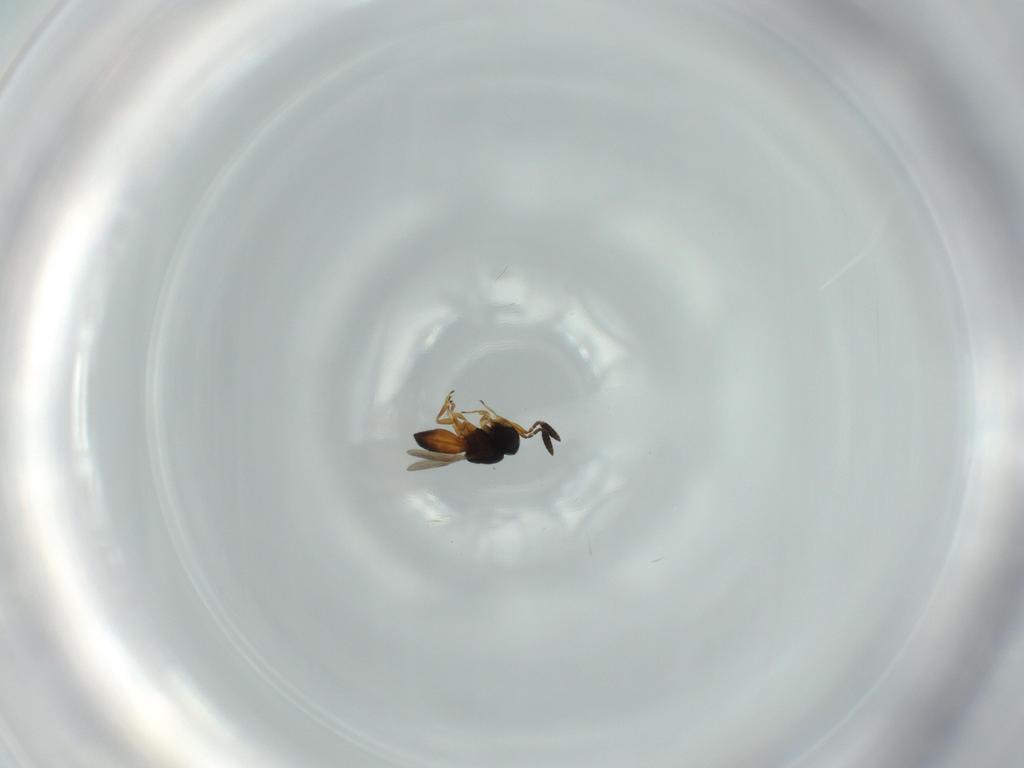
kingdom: Animalia
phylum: Arthropoda
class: Insecta
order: Hymenoptera
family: Scelionidae
